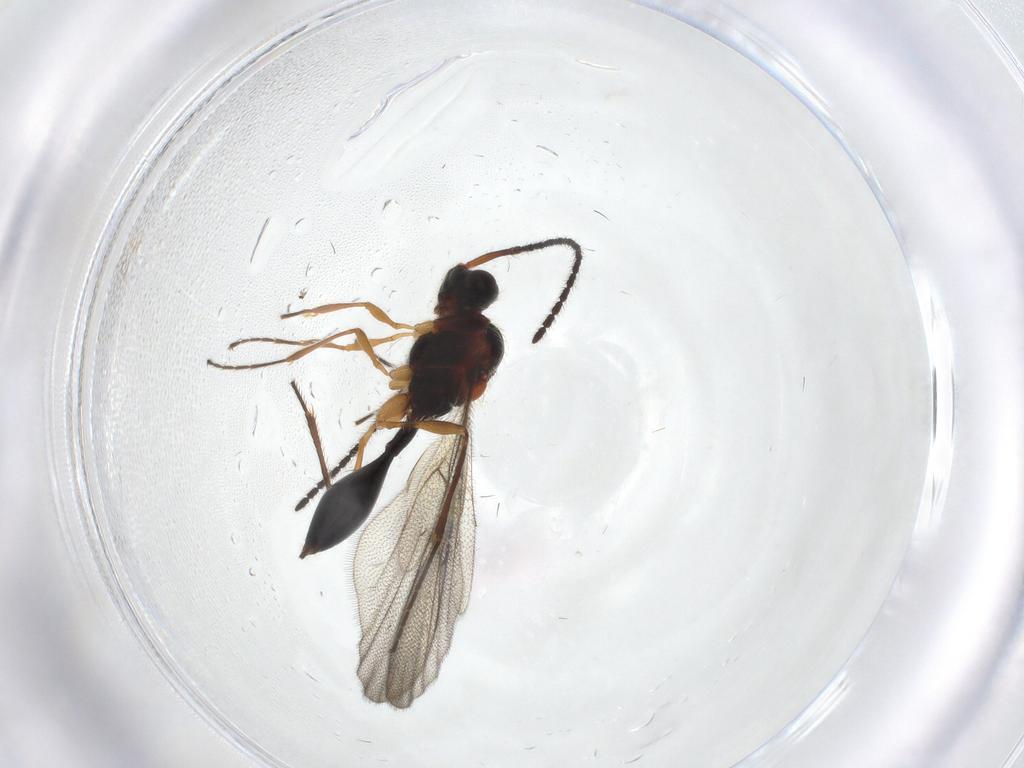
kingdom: Animalia
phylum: Arthropoda
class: Insecta
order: Hymenoptera
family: Diapriidae
